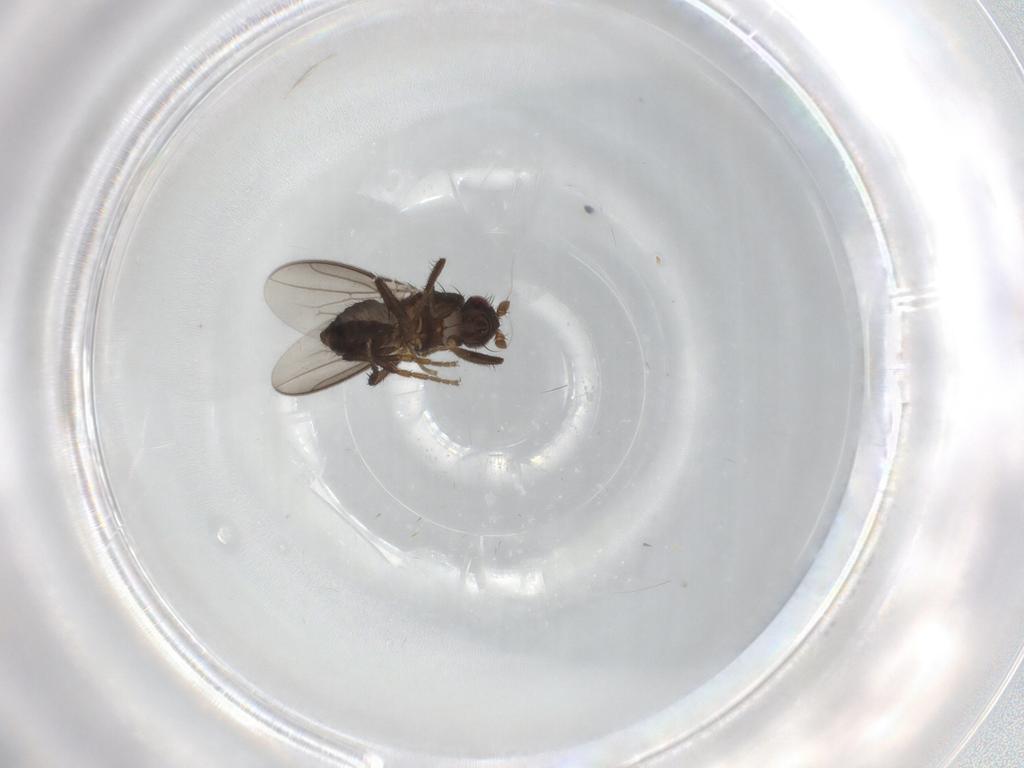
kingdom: Animalia
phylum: Arthropoda
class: Insecta
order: Diptera
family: Sphaeroceridae
